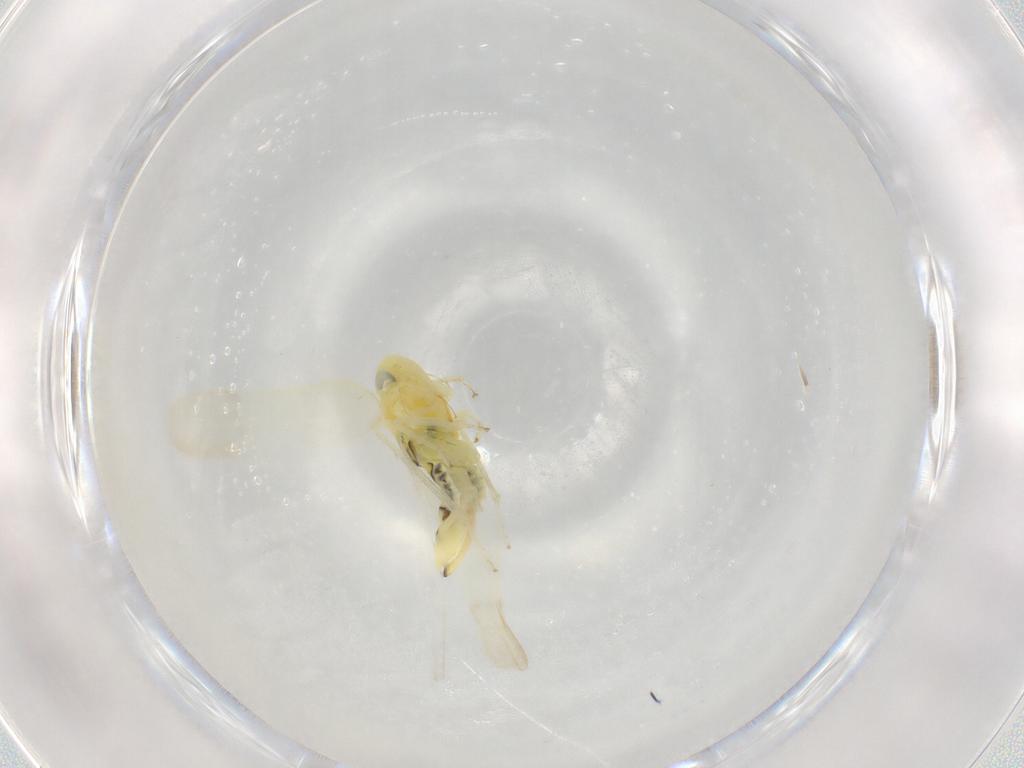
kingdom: Animalia
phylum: Arthropoda
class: Insecta
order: Hemiptera
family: Cicadellidae
